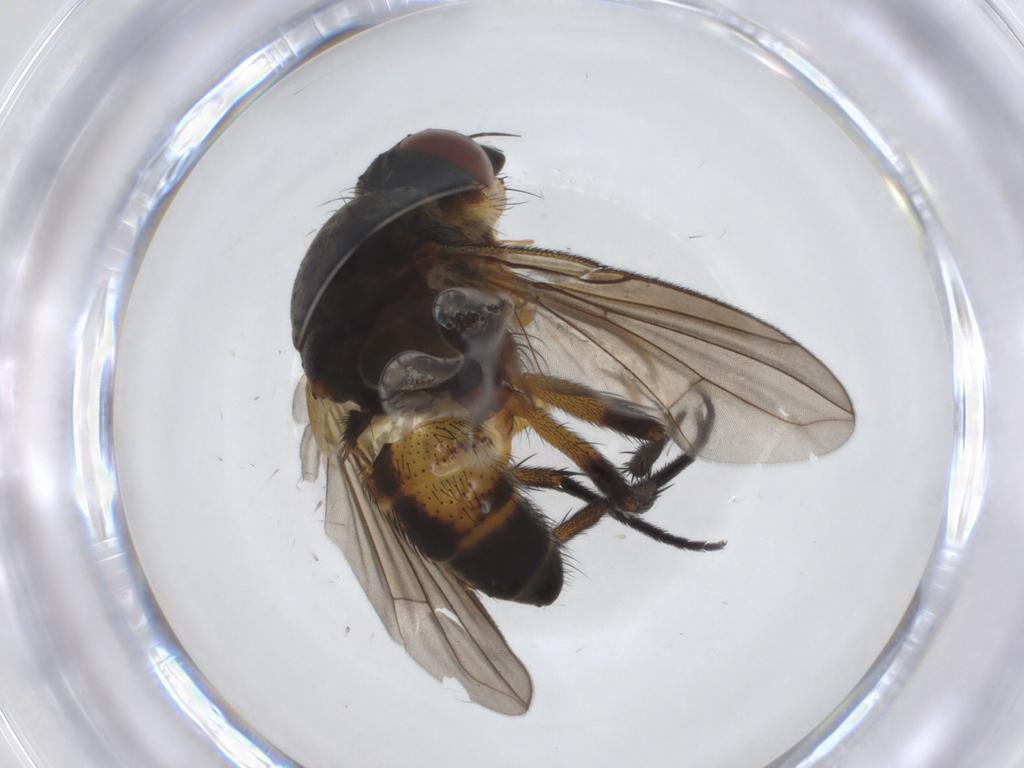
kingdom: Animalia
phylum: Arthropoda
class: Insecta
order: Diptera
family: Tachinidae
